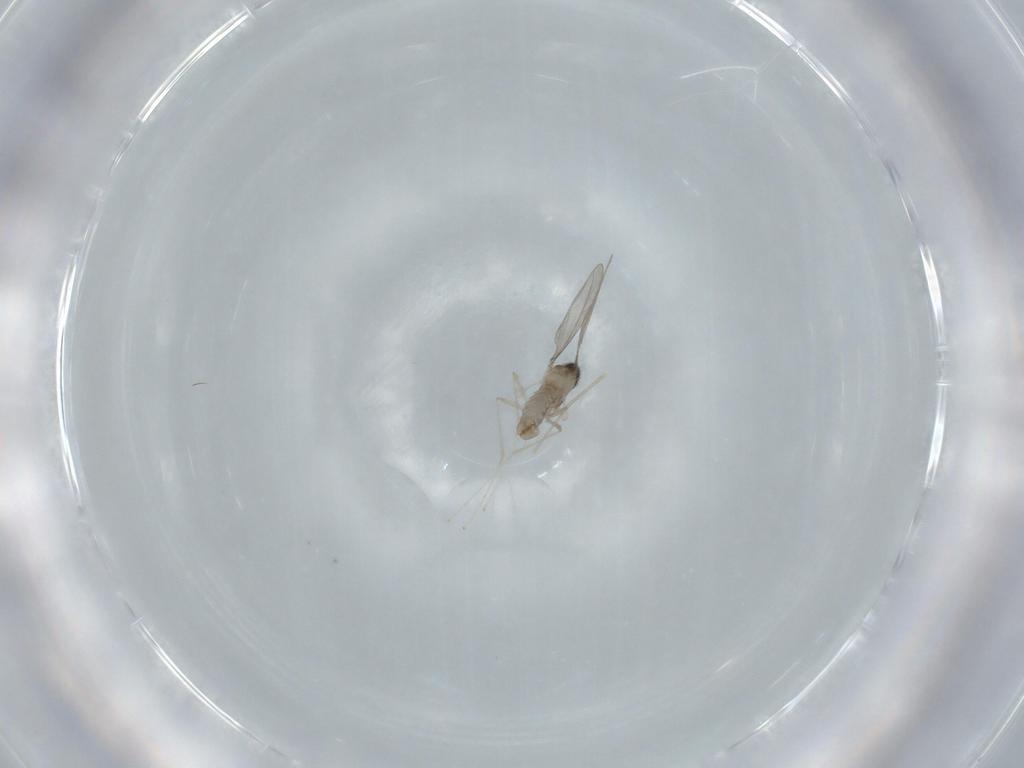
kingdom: Animalia
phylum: Arthropoda
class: Insecta
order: Diptera
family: Cecidomyiidae
